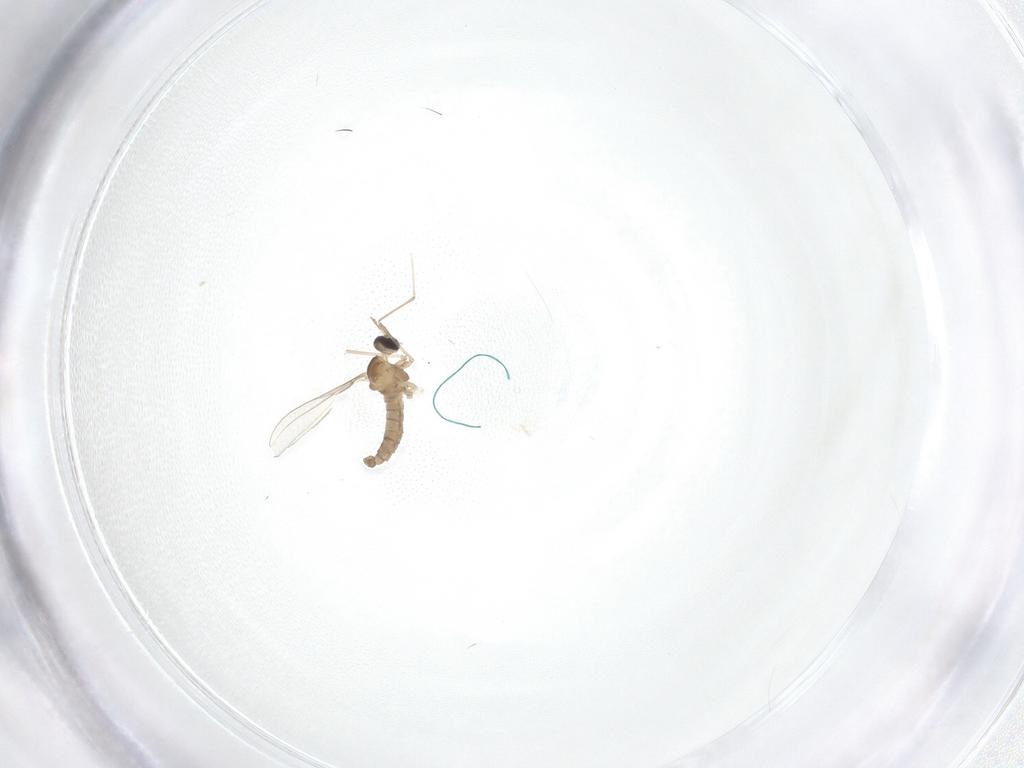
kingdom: Animalia
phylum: Arthropoda
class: Insecta
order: Diptera
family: Cecidomyiidae
